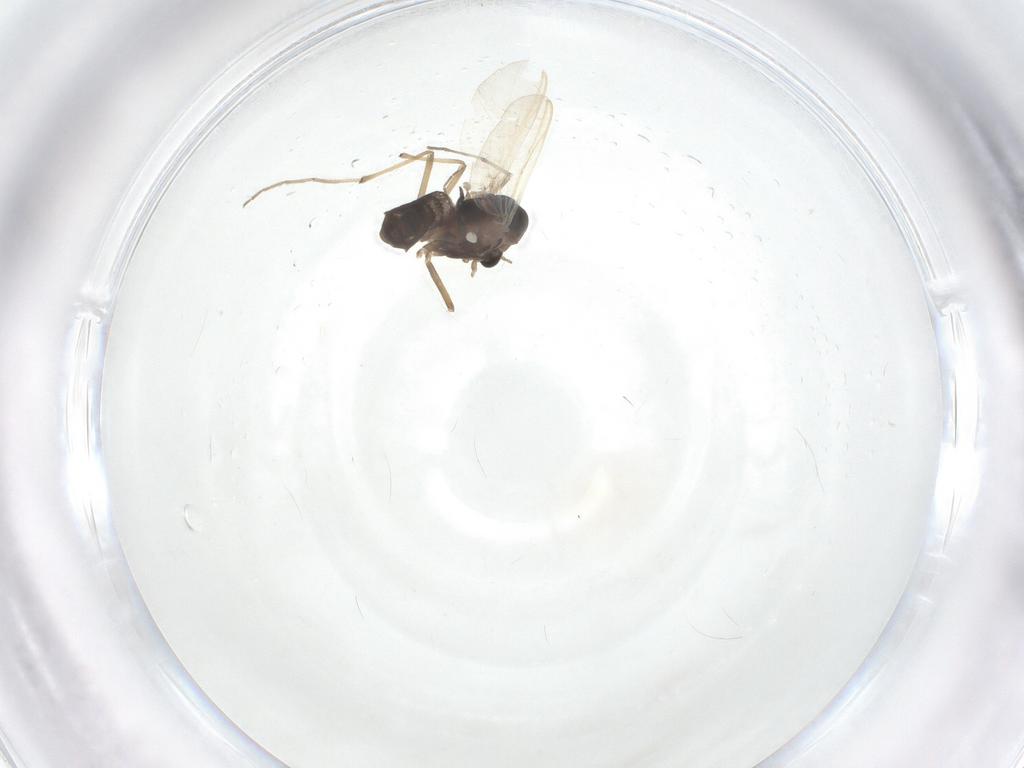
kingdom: Animalia
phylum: Arthropoda
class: Insecta
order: Diptera
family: Chironomidae
